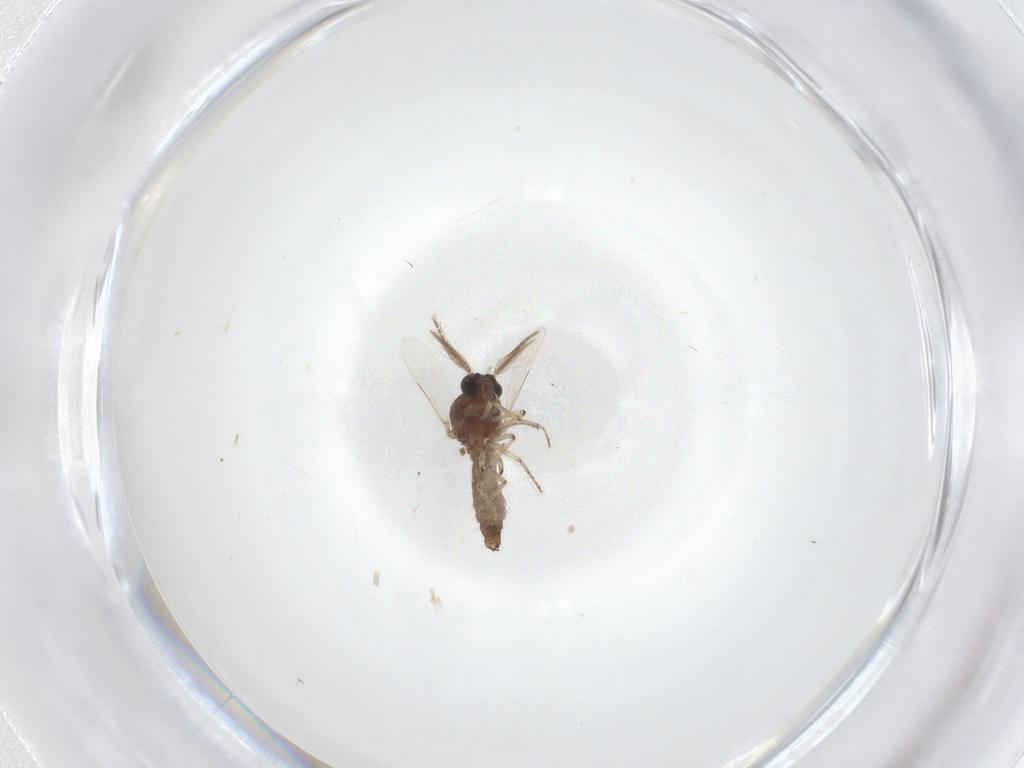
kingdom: Animalia
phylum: Arthropoda
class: Insecta
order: Diptera
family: Ceratopogonidae
